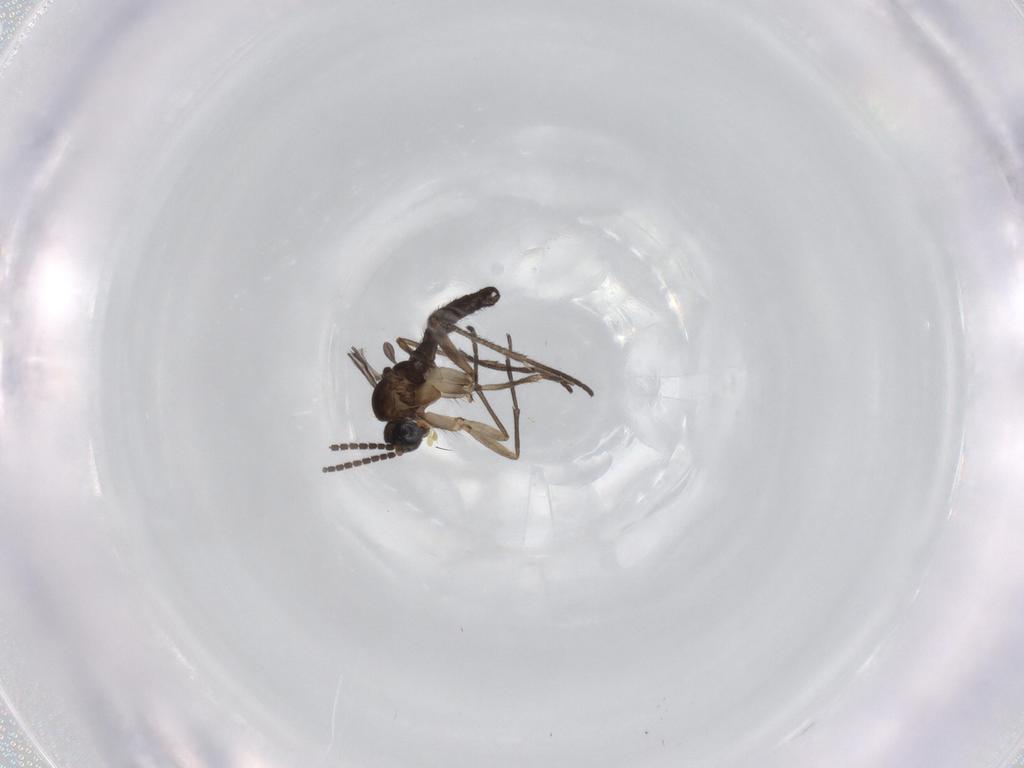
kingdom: Animalia
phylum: Arthropoda
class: Insecta
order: Diptera
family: Sciaridae
